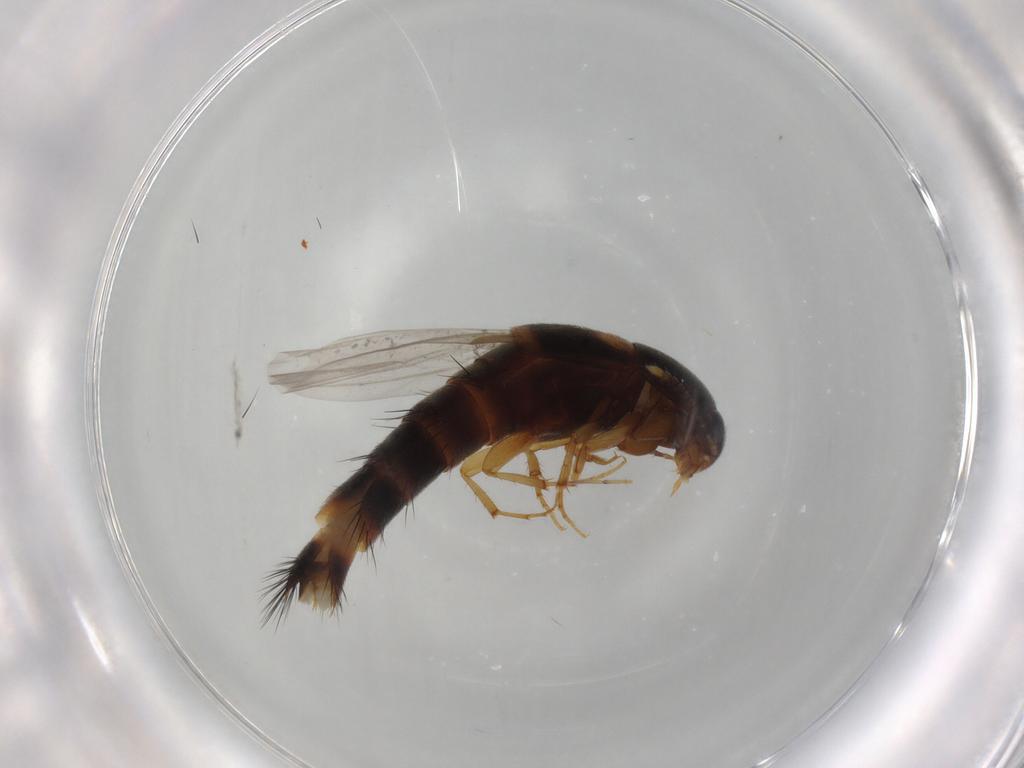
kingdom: Animalia
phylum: Arthropoda
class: Insecta
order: Coleoptera
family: Staphylinidae
